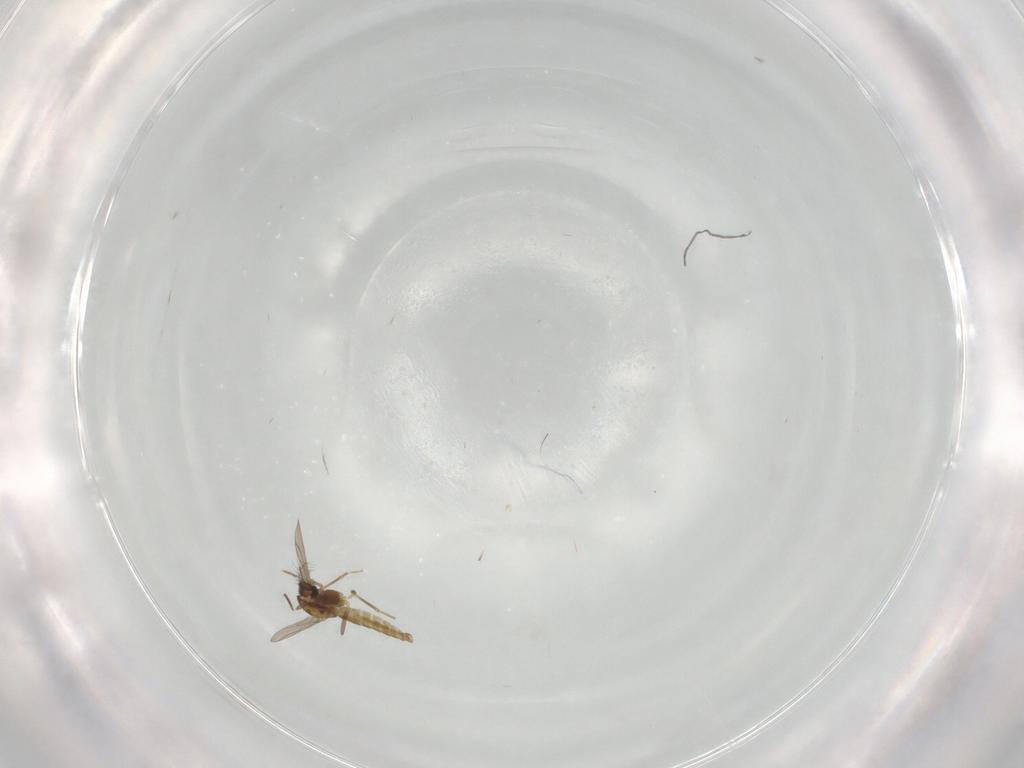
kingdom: Animalia
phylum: Arthropoda
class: Insecta
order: Diptera
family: Chironomidae
